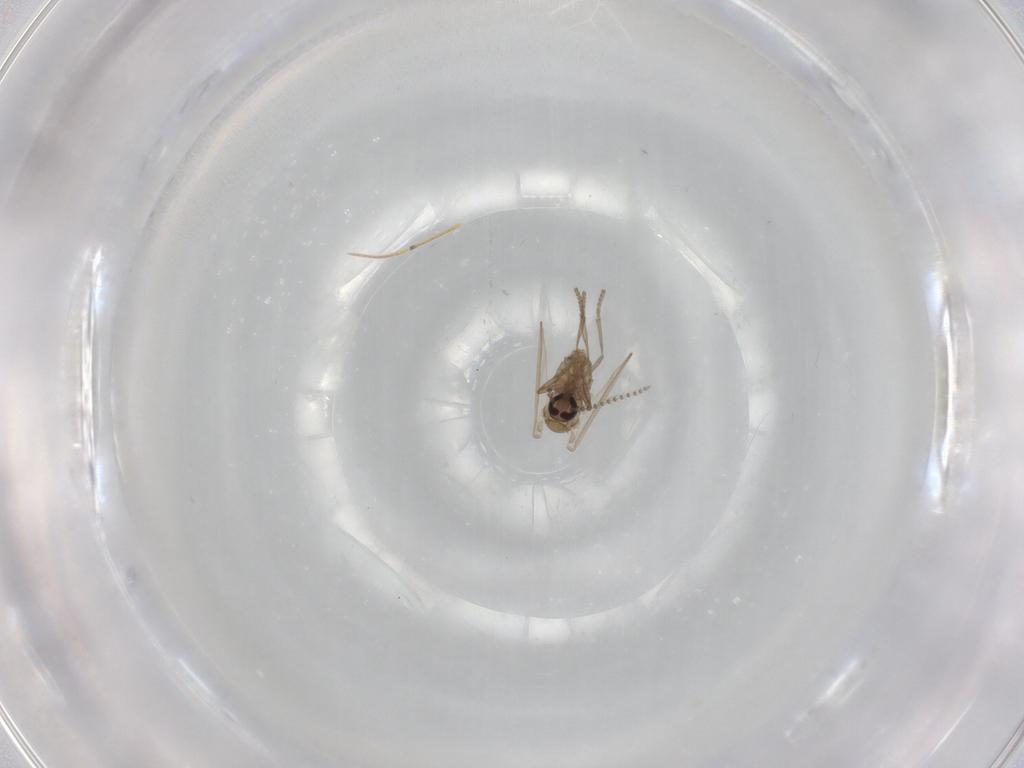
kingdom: Animalia
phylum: Arthropoda
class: Insecta
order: Diptera
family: Psychodidae
